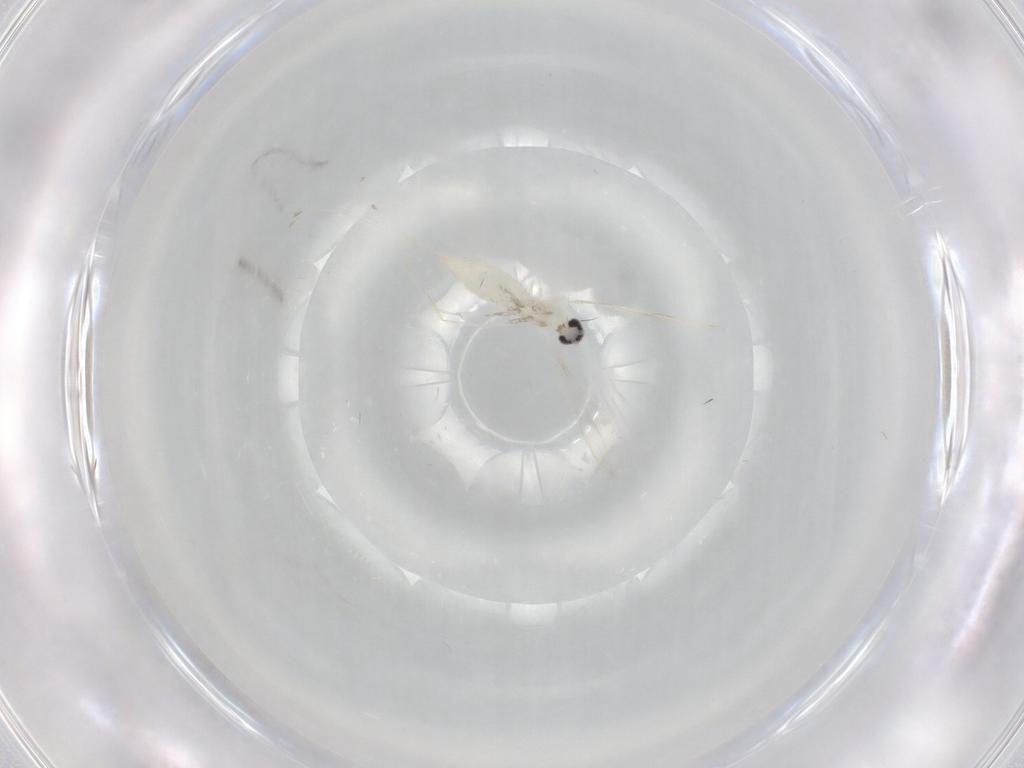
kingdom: Animalia
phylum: Arthropoda
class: Insecta
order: Diptera
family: Cecidomyiidae
